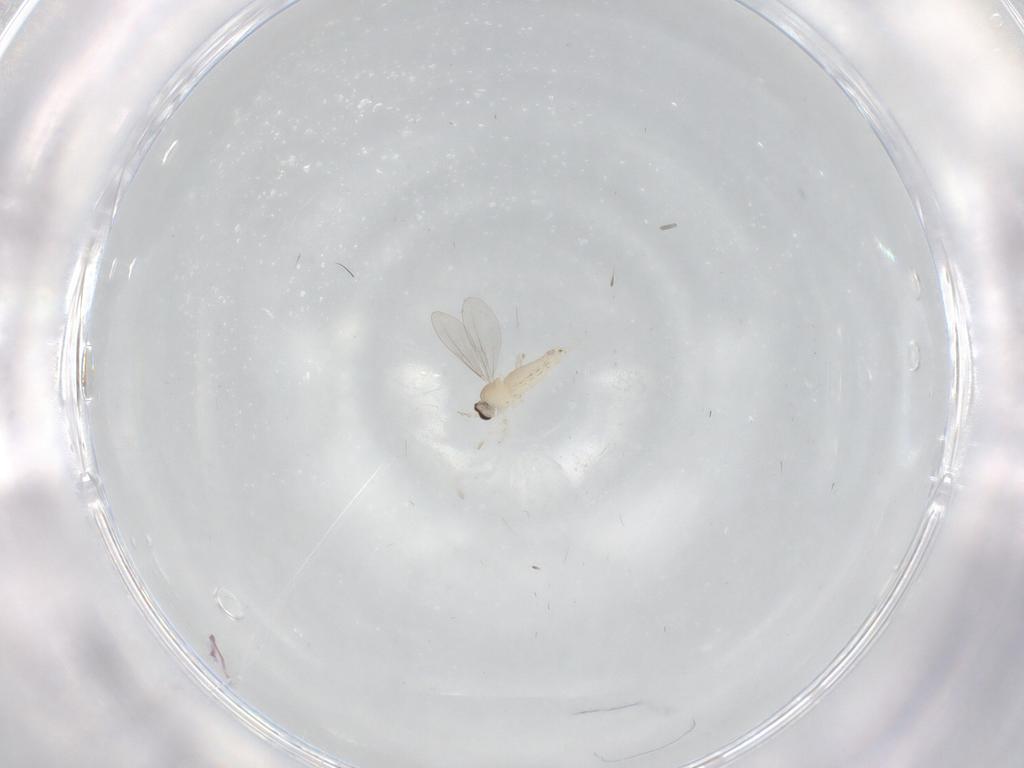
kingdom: Animalia
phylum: Arthropoda
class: Insecta
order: Diptera
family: Cecidomyiidae
